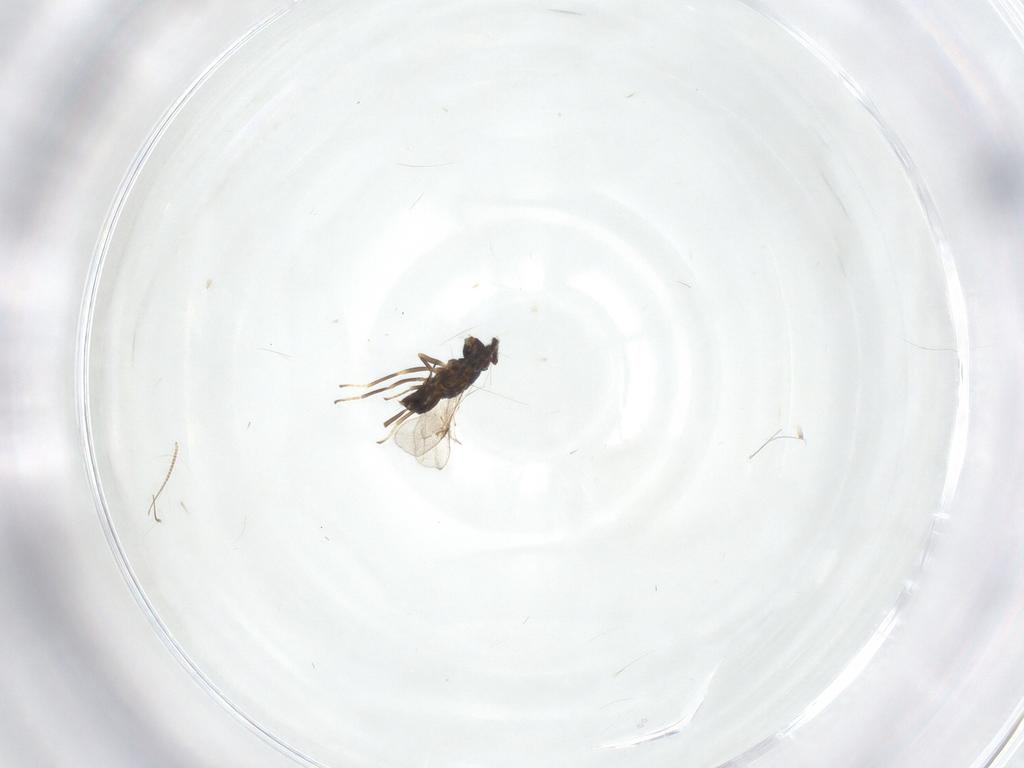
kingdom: Animalia
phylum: Arthropoda
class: Insecta
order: Hymenoptera
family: Encyrtidae
